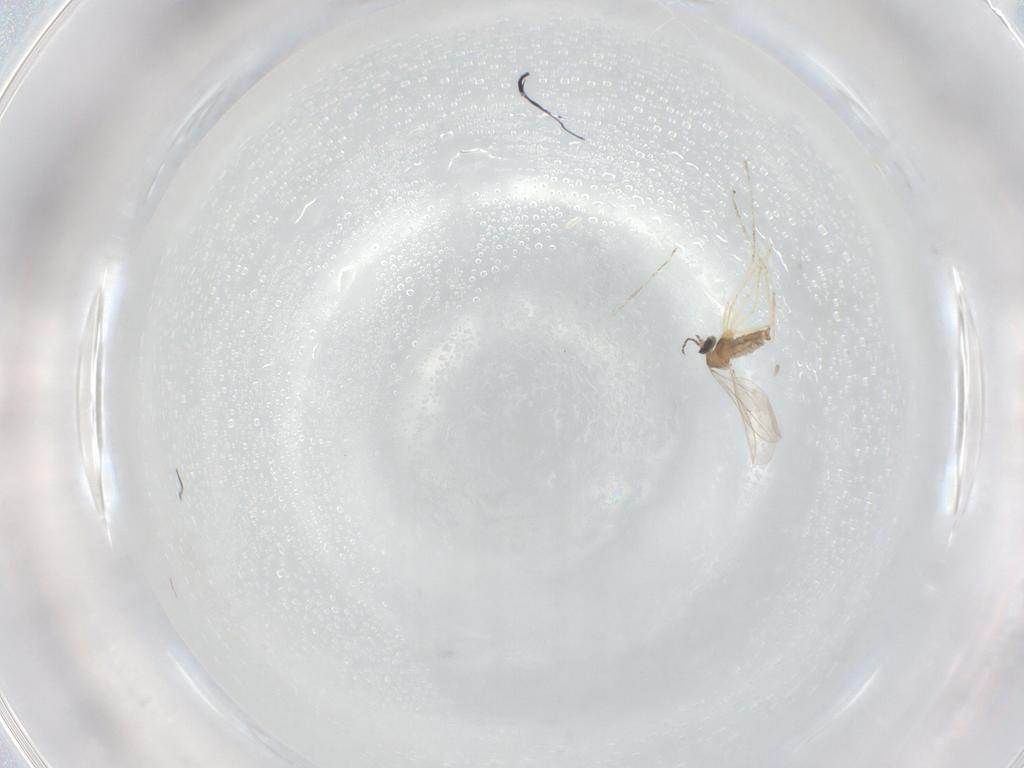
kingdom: Animalia
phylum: Arthropoda
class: Insecta
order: Diptera
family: Cecidomyiidae
